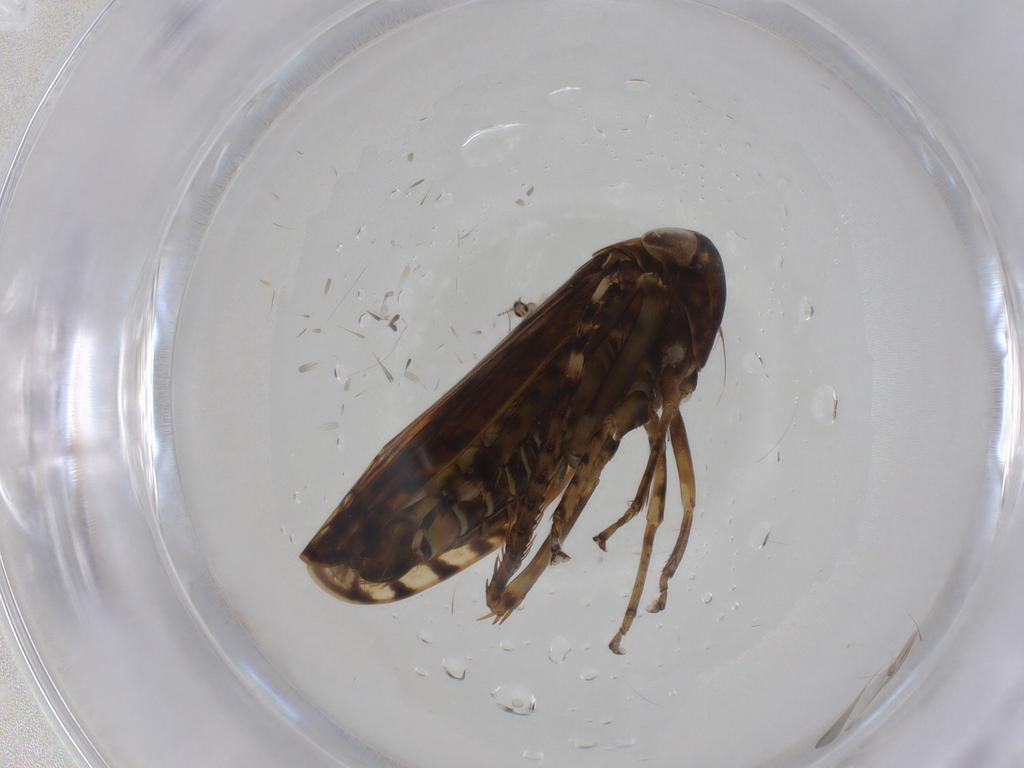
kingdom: Animalia
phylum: Arthropoda
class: Insecta
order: Hemiptera
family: Cicadellidae
